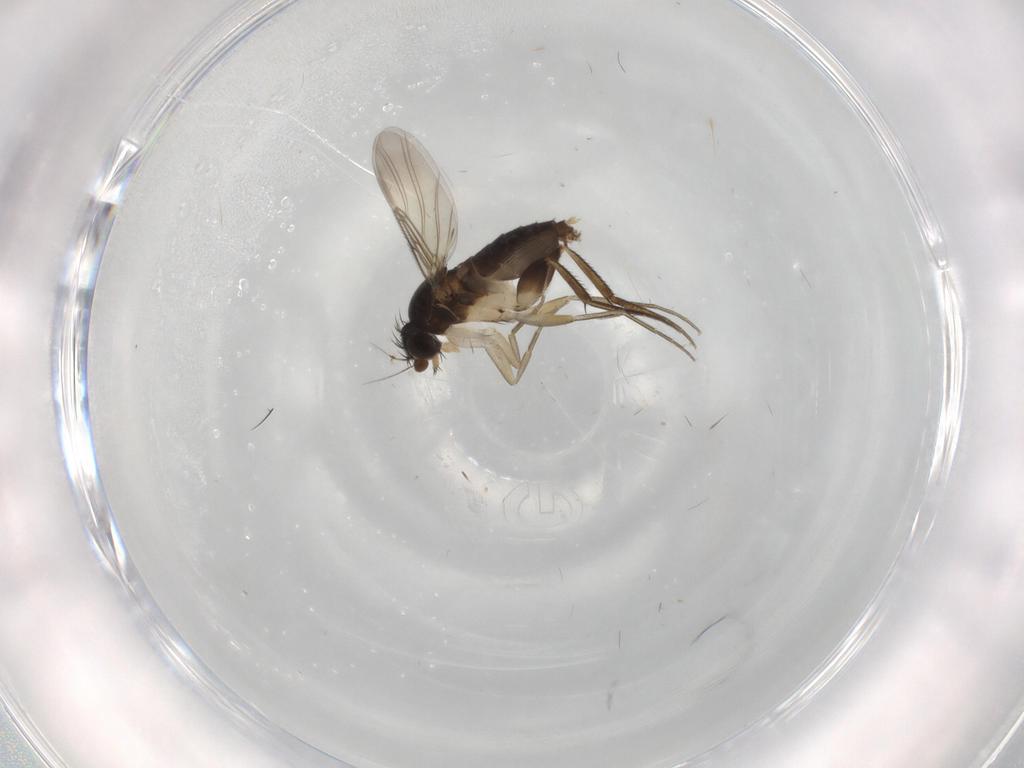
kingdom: Animalia
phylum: Arthropoda
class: Insecta
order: Diptera
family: Phoridae
